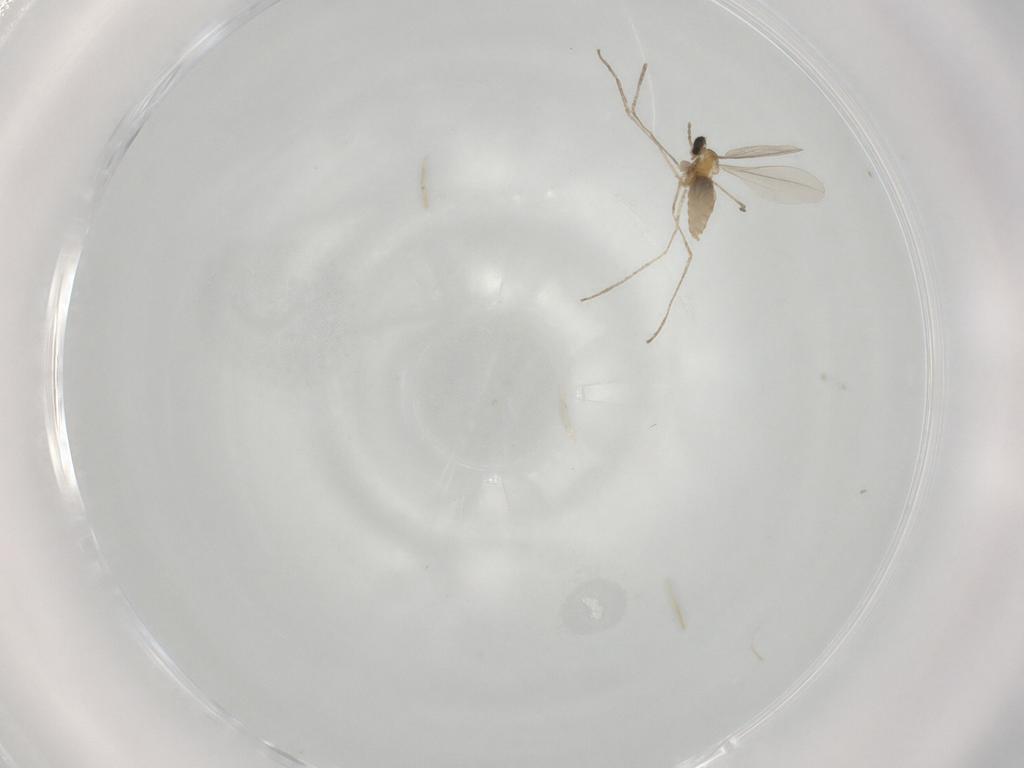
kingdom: Animalia
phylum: Arthropoda
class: Insecta
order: Diptera
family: Cecidomyiidae
